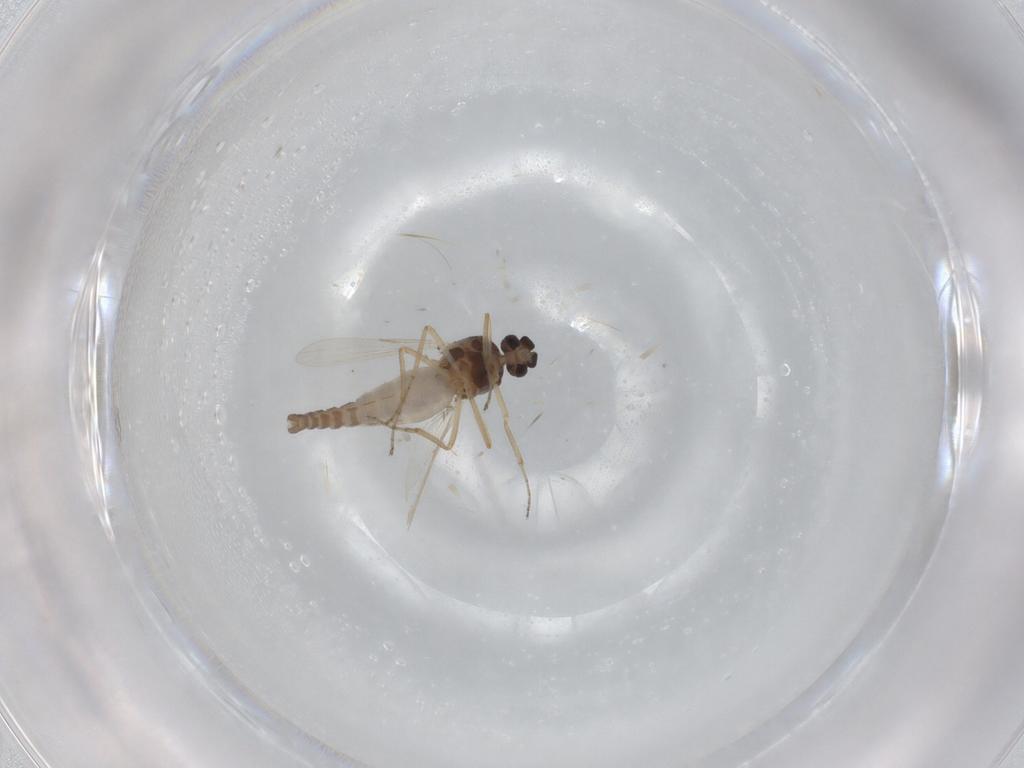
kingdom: Animalia
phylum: Arthropoda
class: Insecta
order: Diptera
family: Ceratopogonidae
